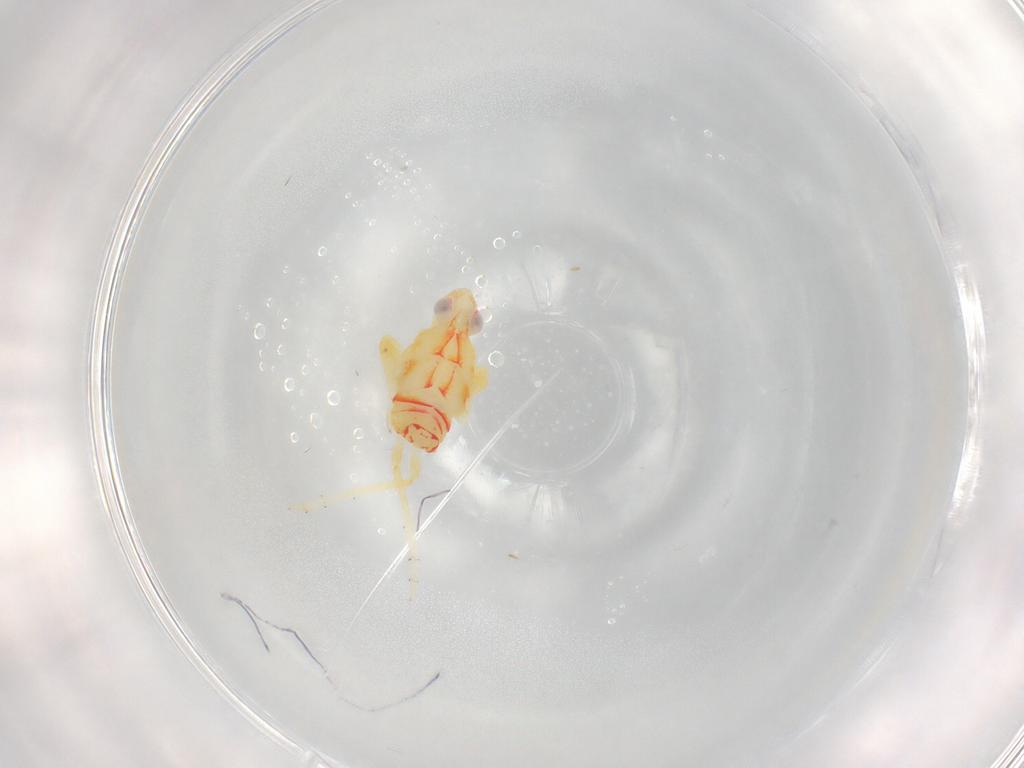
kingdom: Animalia
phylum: Arthropoda
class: Insecta
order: Hemiptera
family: Tropiduchidae
